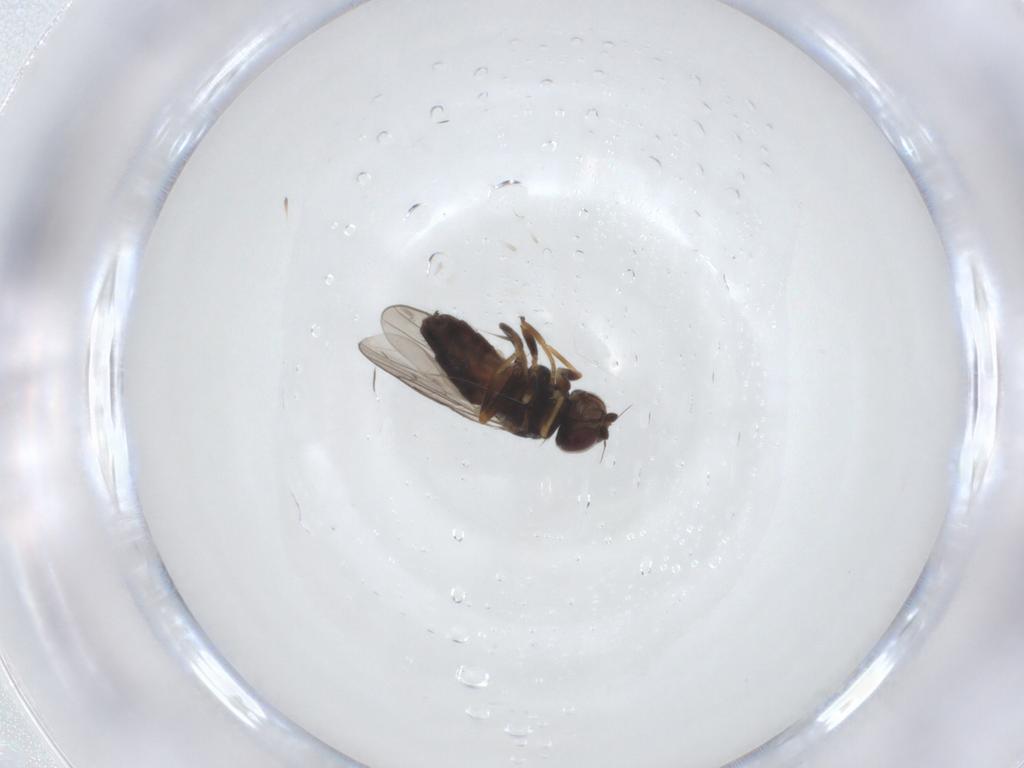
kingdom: Animalia
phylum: Arthropoda
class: Insecta
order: Diptera
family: Chloropidae
